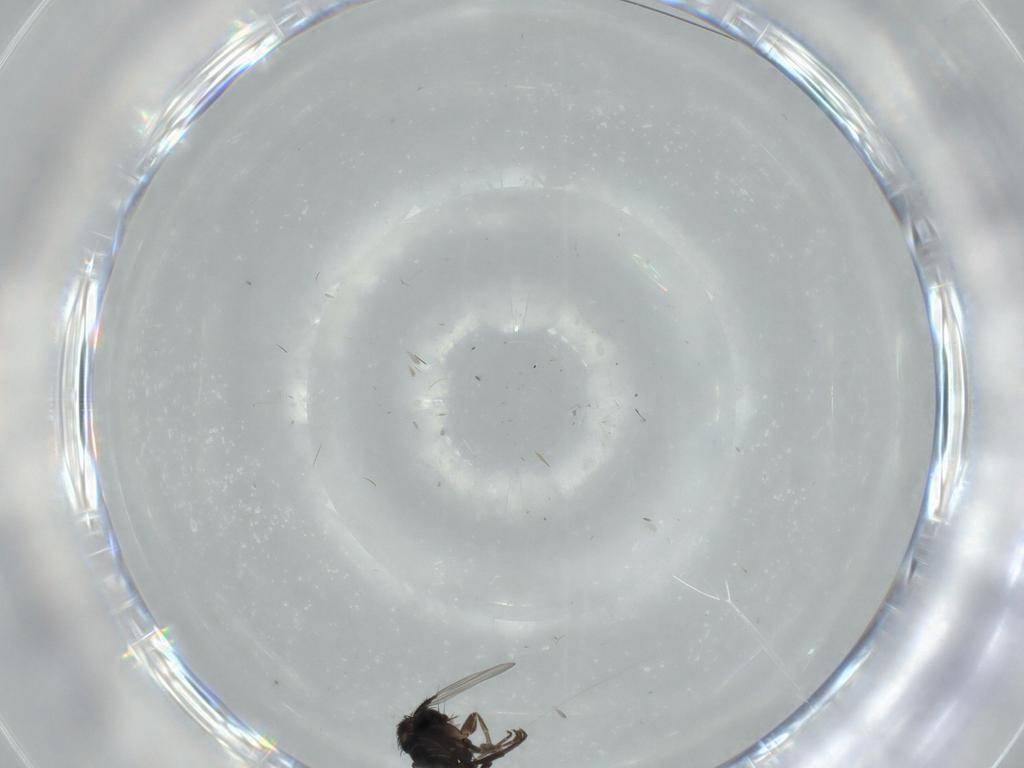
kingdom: Animalia
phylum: Arthropoda
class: Insecta
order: Diptera
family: Phoridae
